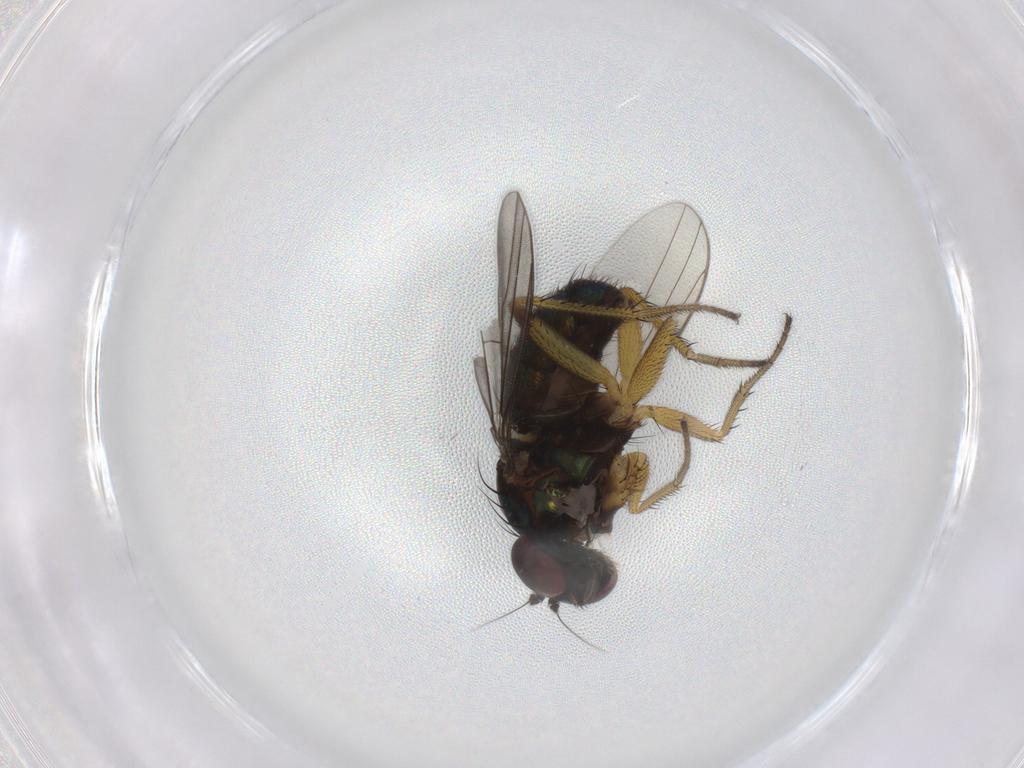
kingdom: Animalia
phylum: Arthropoda
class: Insecta
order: Diptera
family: Dolichopodidae
